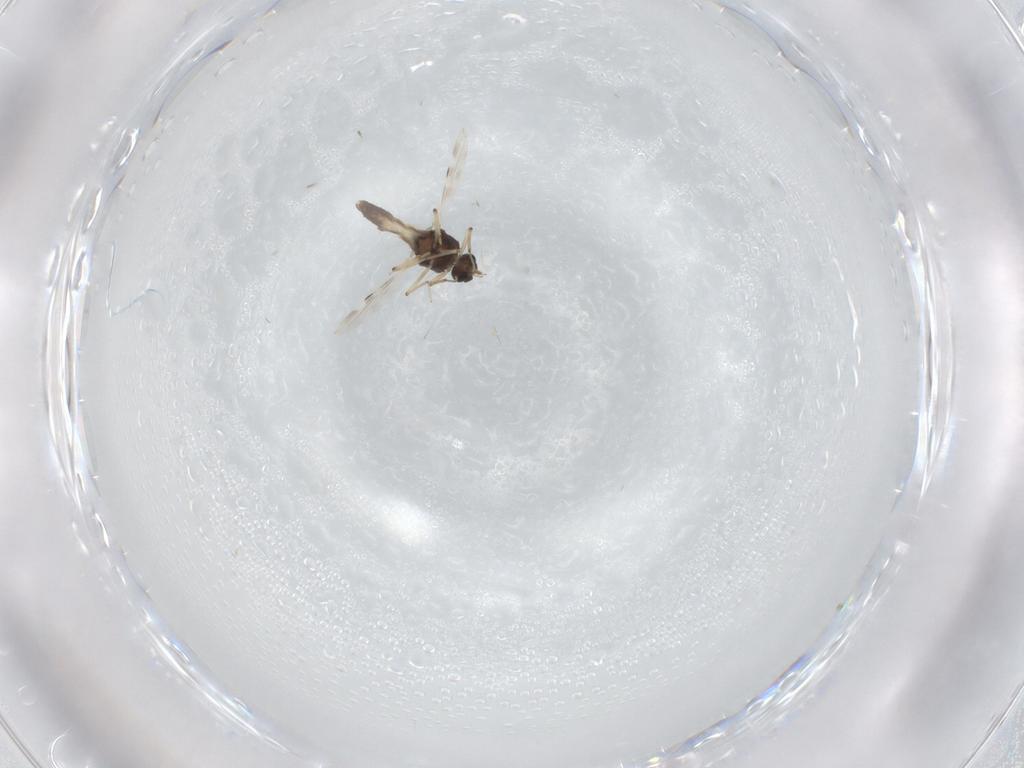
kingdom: Animalia
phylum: Arthropoda
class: Insecta
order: Diptera
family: Syrphidae
